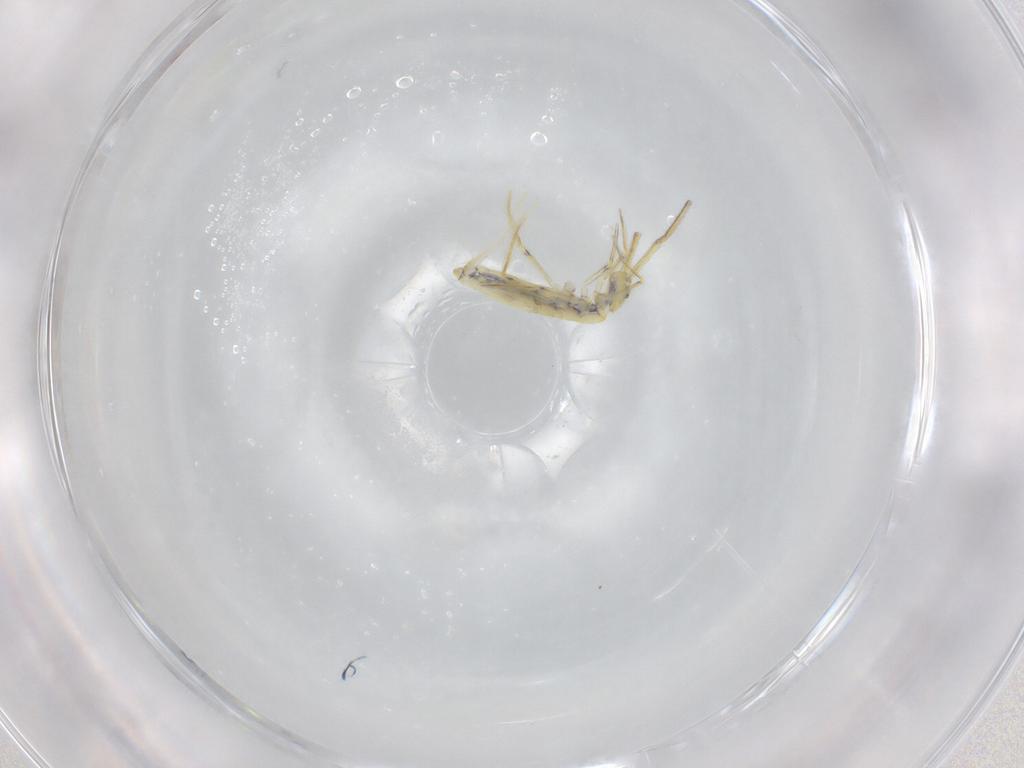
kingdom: Animalia
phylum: Arthropoda
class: Collembola
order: Entomobryomorpha
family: Entomobryidae
